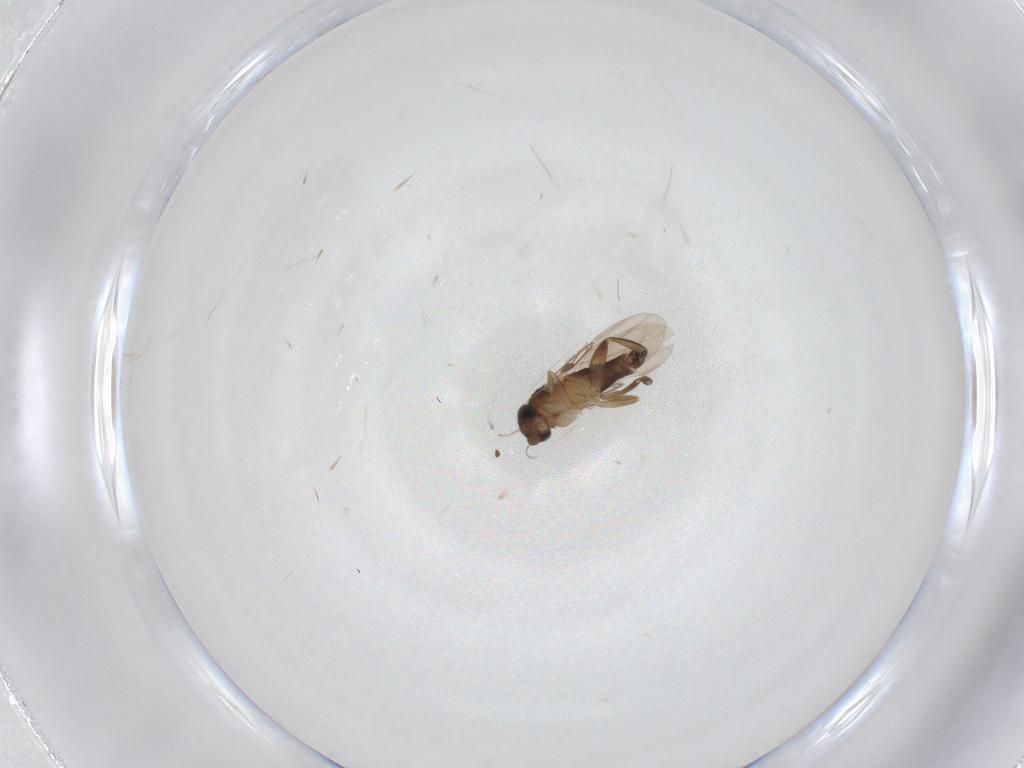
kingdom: Animalia
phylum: Arthropoda
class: Insecta
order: Diptera
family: Phoridae
